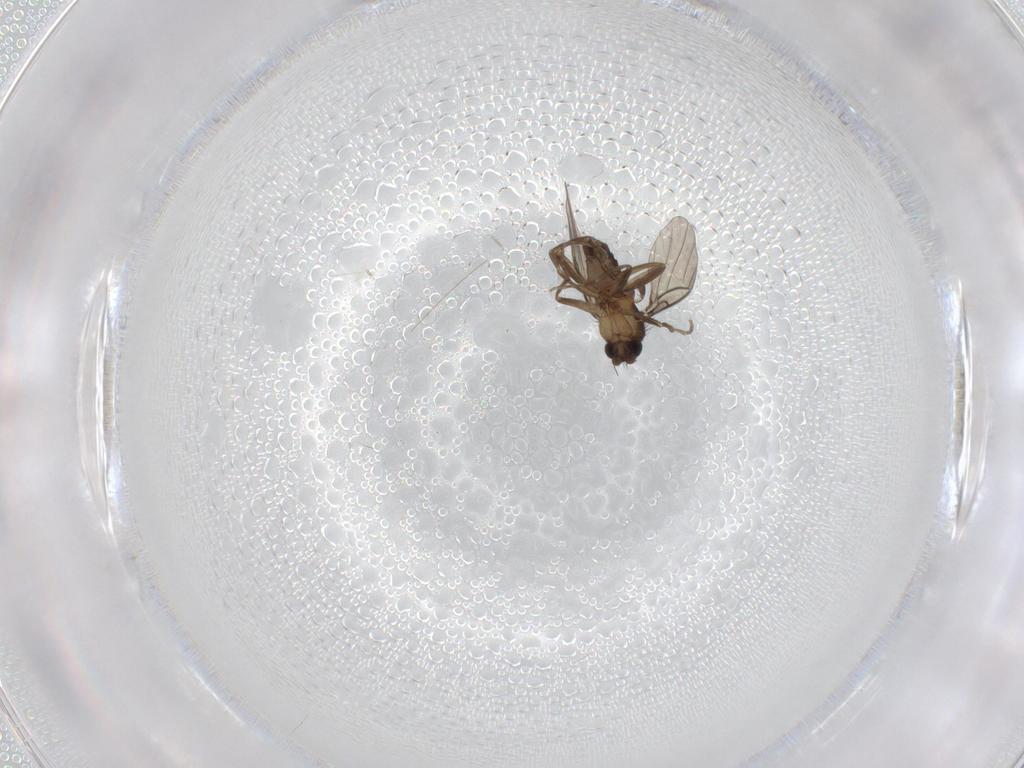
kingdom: Animalia
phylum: Arthropoda
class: Insecta
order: Diptera
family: Phoridae
